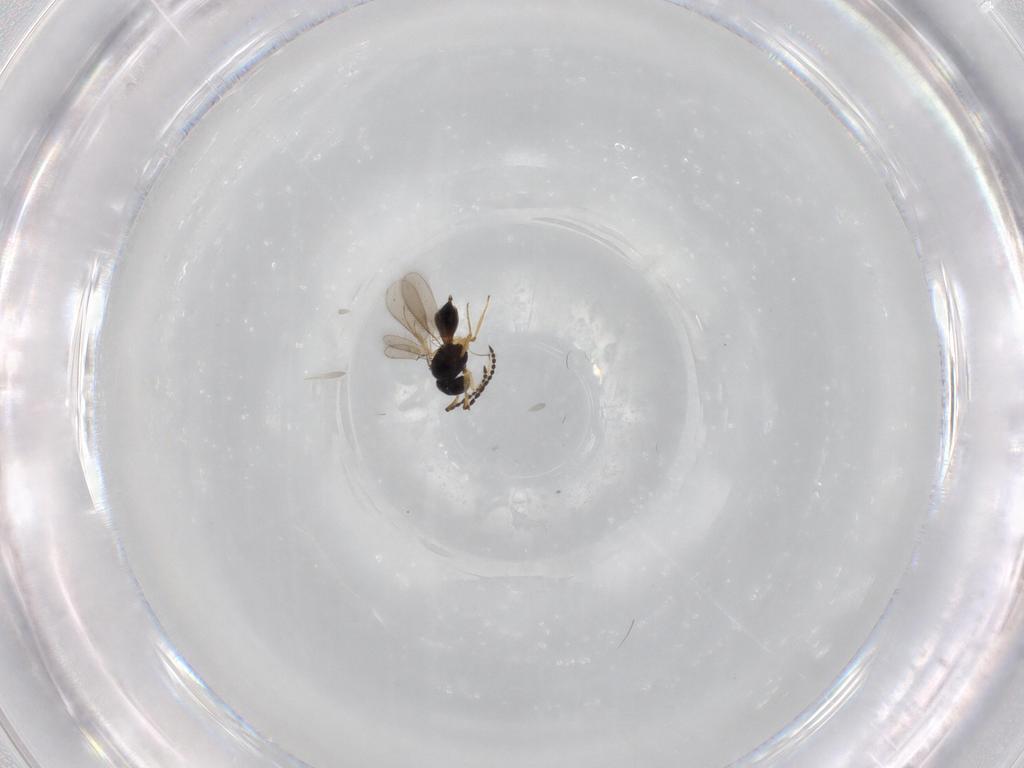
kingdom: Animalia
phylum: Arthropoda
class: Insecta
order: Hymenoptera
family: Scelionidae
